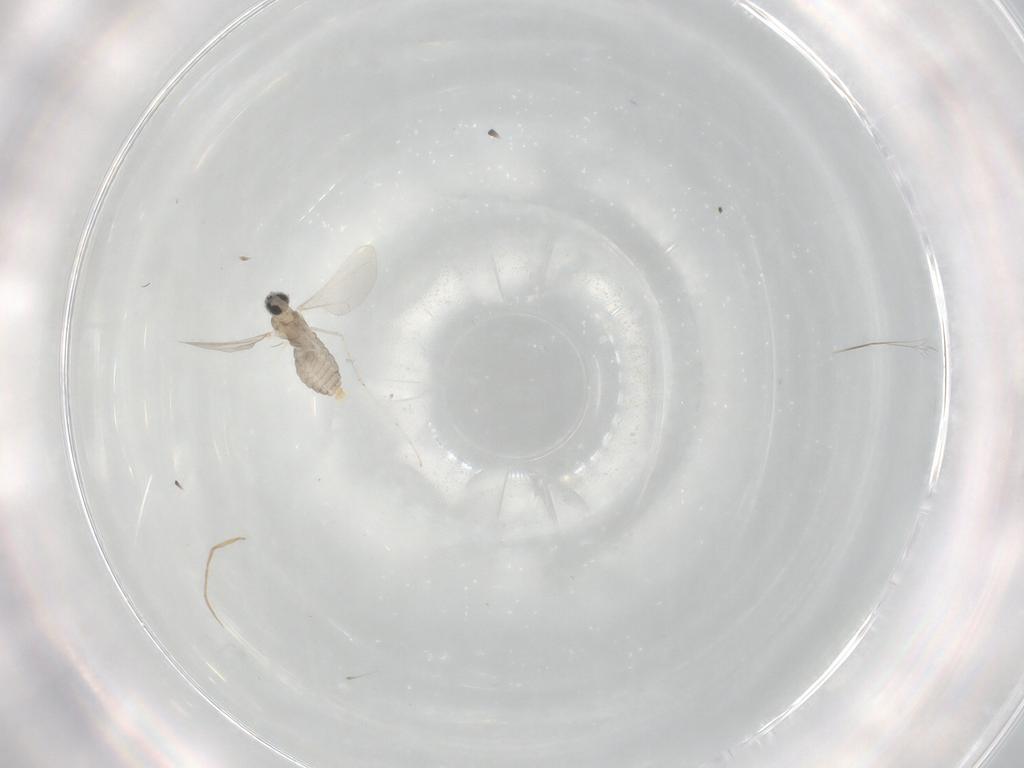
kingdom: Animalia
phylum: Arthropoda
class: Insecta
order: Diptera
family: Cecidomyiidae
